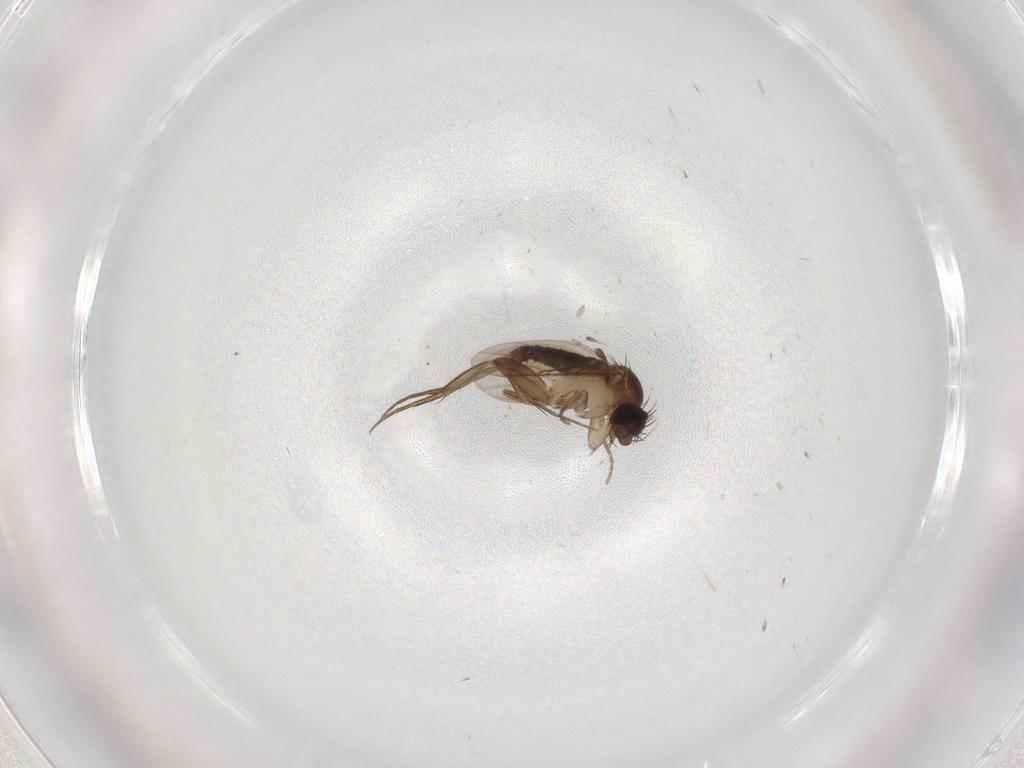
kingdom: Animalia
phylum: Arthropoda
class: Insecta
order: Diptera
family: Phoridae
